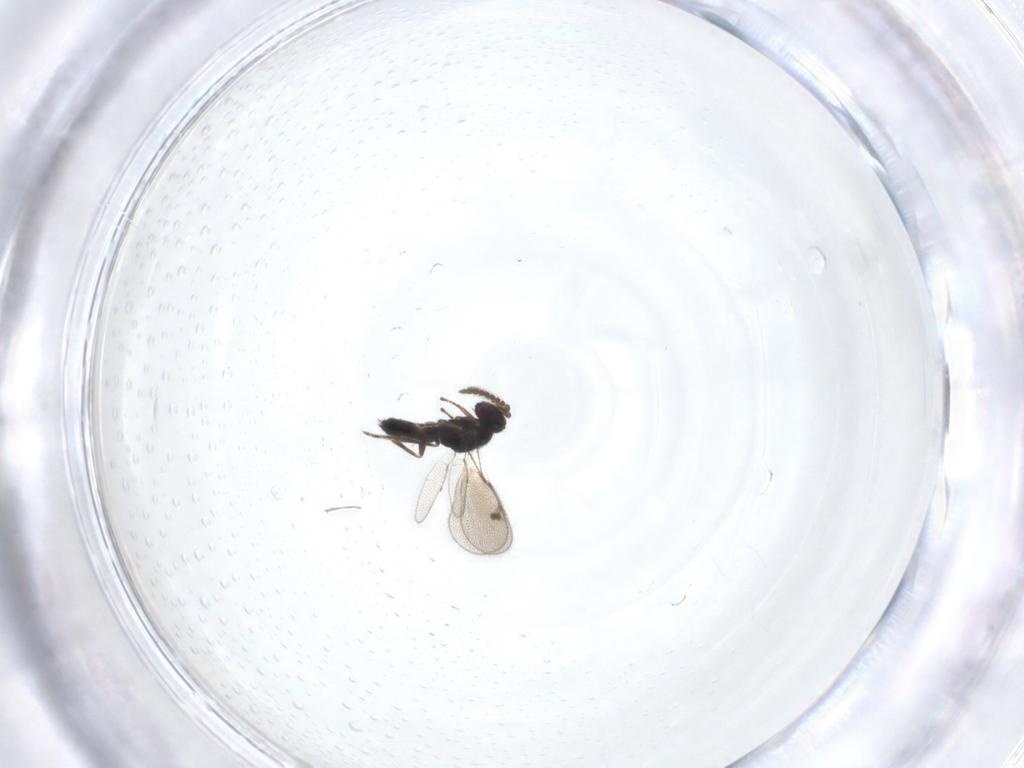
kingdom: Animalia
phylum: Arthropoda
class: Insecta
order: Hymenoptera
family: Pirenidae
